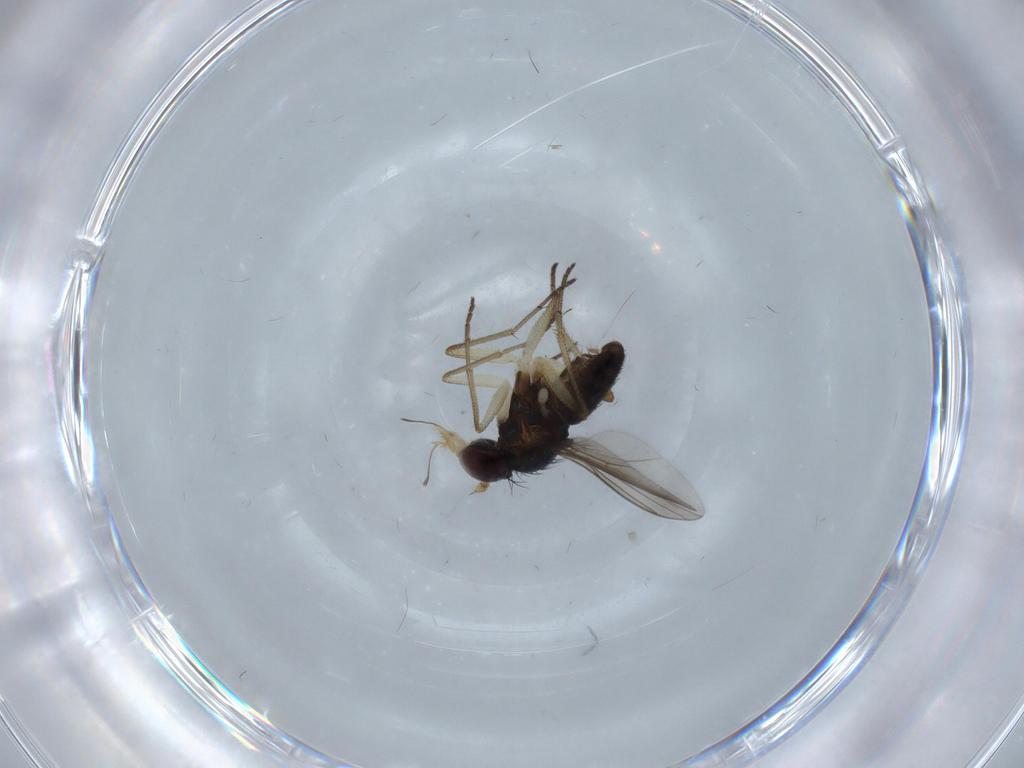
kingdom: Animalia
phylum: Arthropoda
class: Insecta
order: Diptera
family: Dolichopodidae
